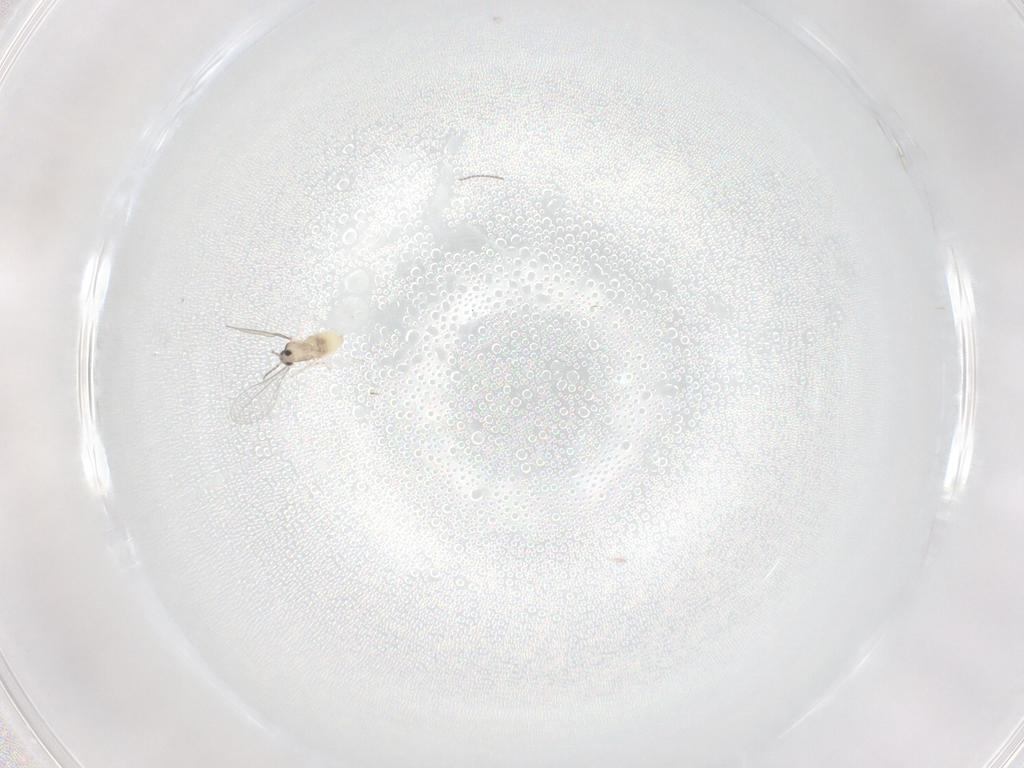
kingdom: Animalia
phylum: Arthropoda
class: Insecta
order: Diptera
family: Cecidomyiidae
